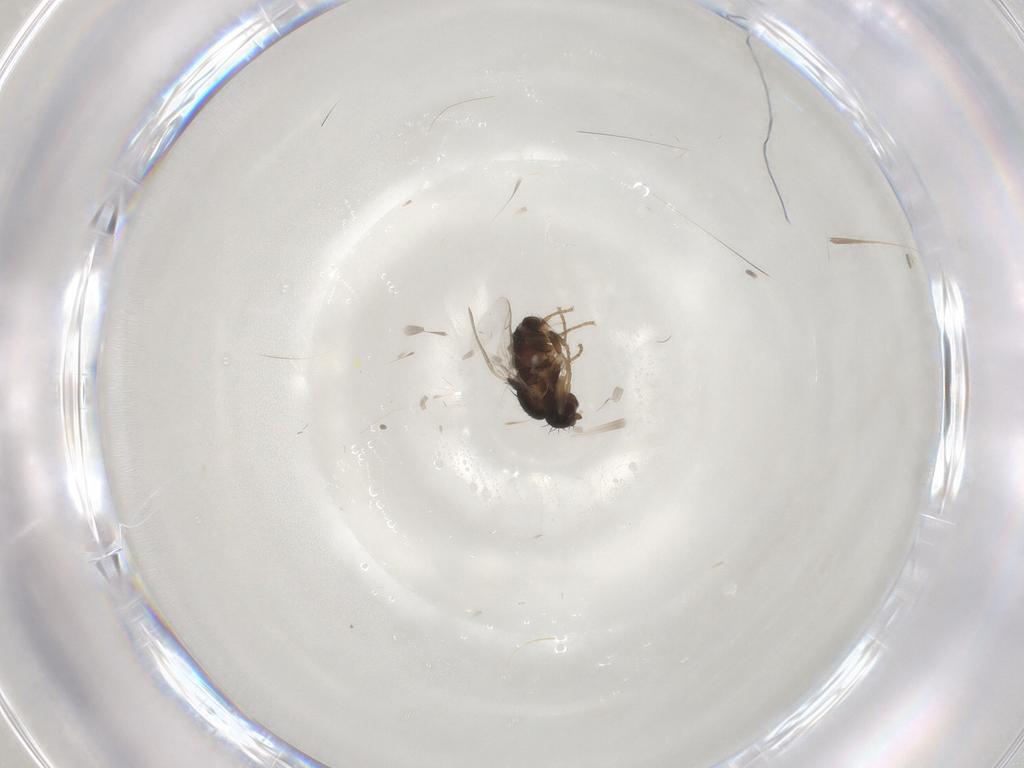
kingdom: Animalia
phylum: Arthropoda
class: Insecta
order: Diptera
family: Sphaeroceridae
